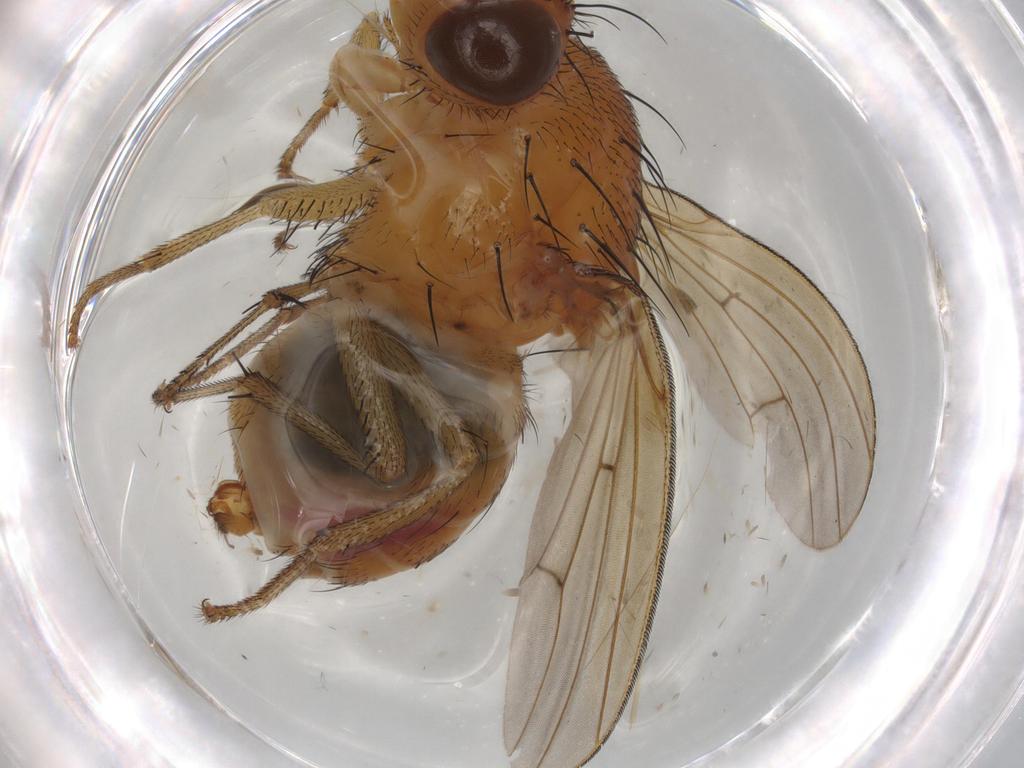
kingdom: Animalia
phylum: Arthropoda
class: Insecta
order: Diptera
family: Chironomidae
